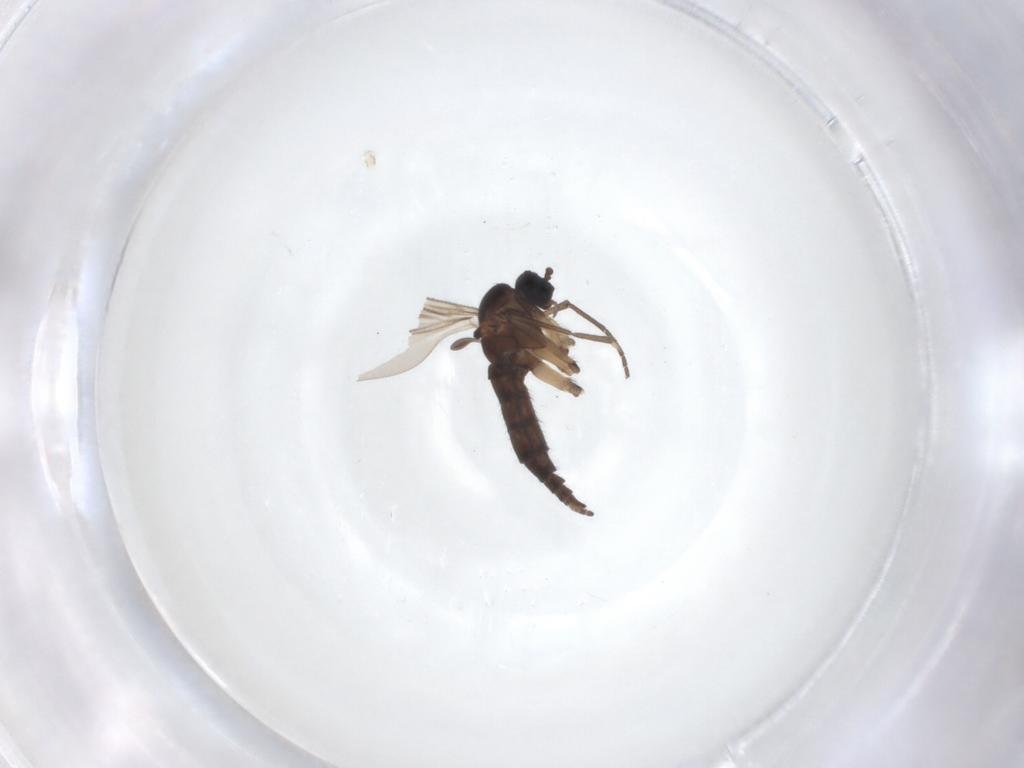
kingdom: Animalia
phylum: Arthropoda
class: Insecta
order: Diptera
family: Sciaridae
